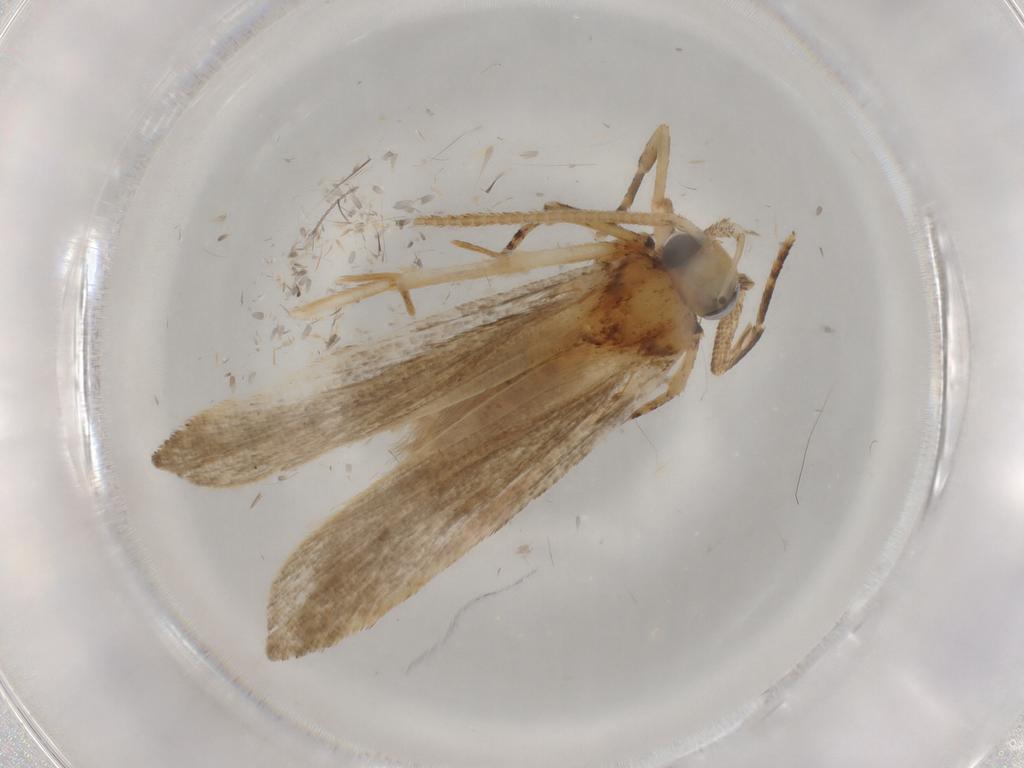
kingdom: Animalia
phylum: Arthropoda
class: Insecta
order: Lepidoptera
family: Autostichidae
